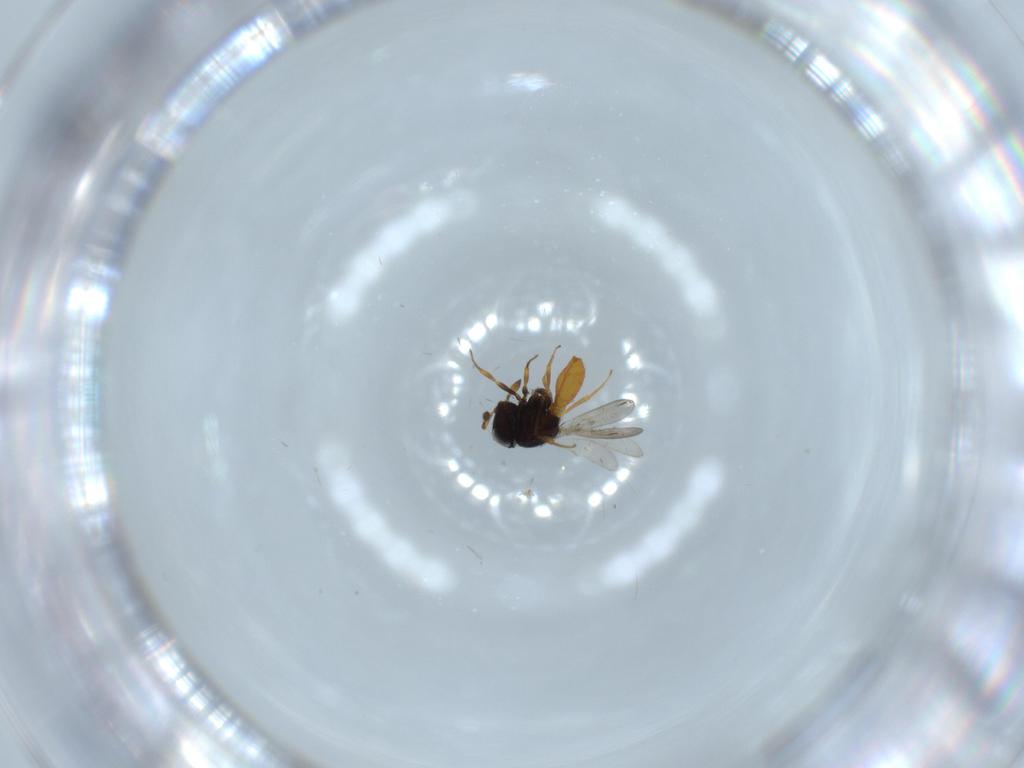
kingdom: Animalia
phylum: Arthropoda
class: Insecta
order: Hymenoptera
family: Scelionidae
